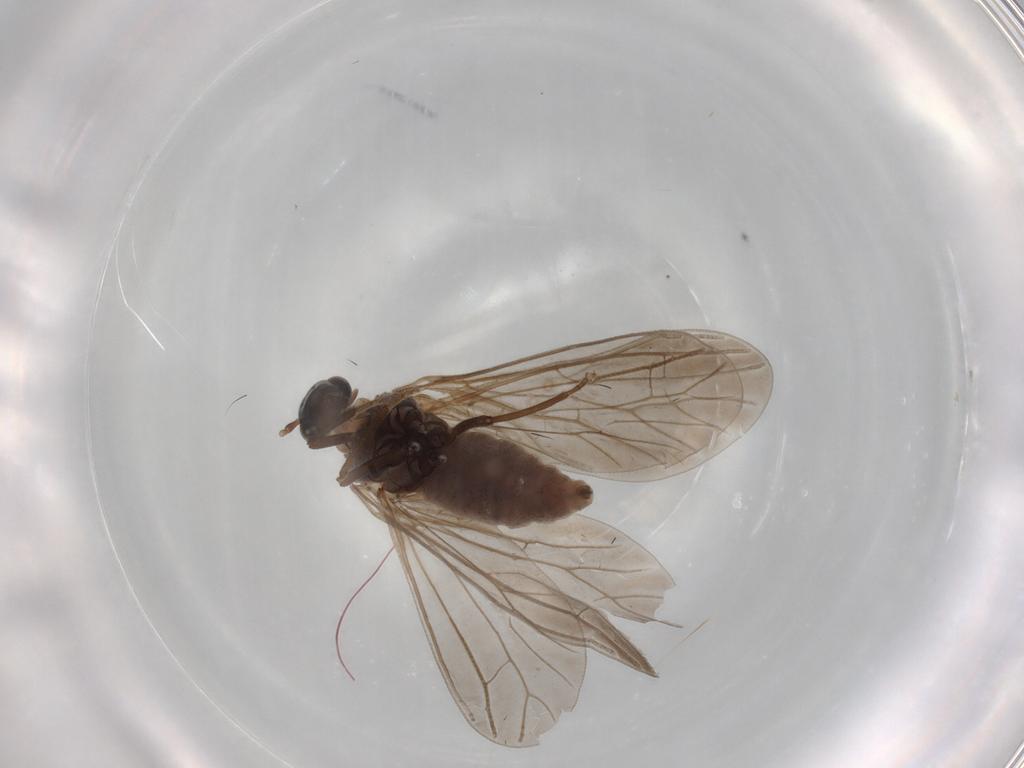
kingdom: Animalia
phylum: Arthropoda
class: Insecta
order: Neuroptera
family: Coniopterygidae
